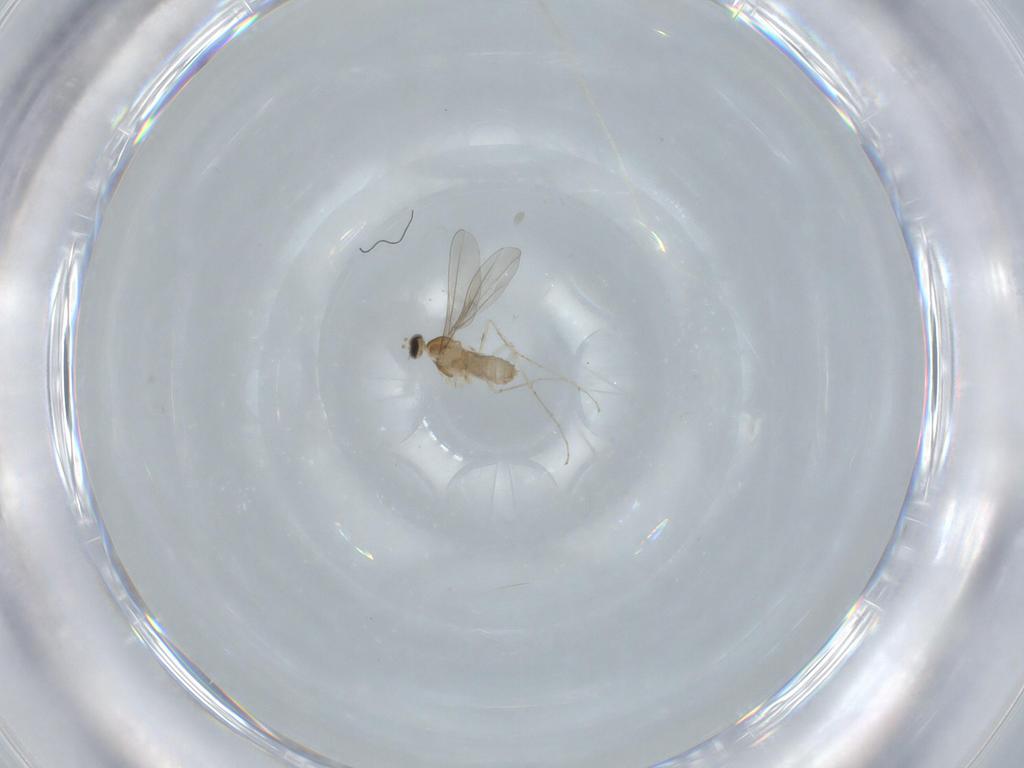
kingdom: Animalia
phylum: Arthropoda
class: Insecta
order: Diptera
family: Cecidomyiidae
